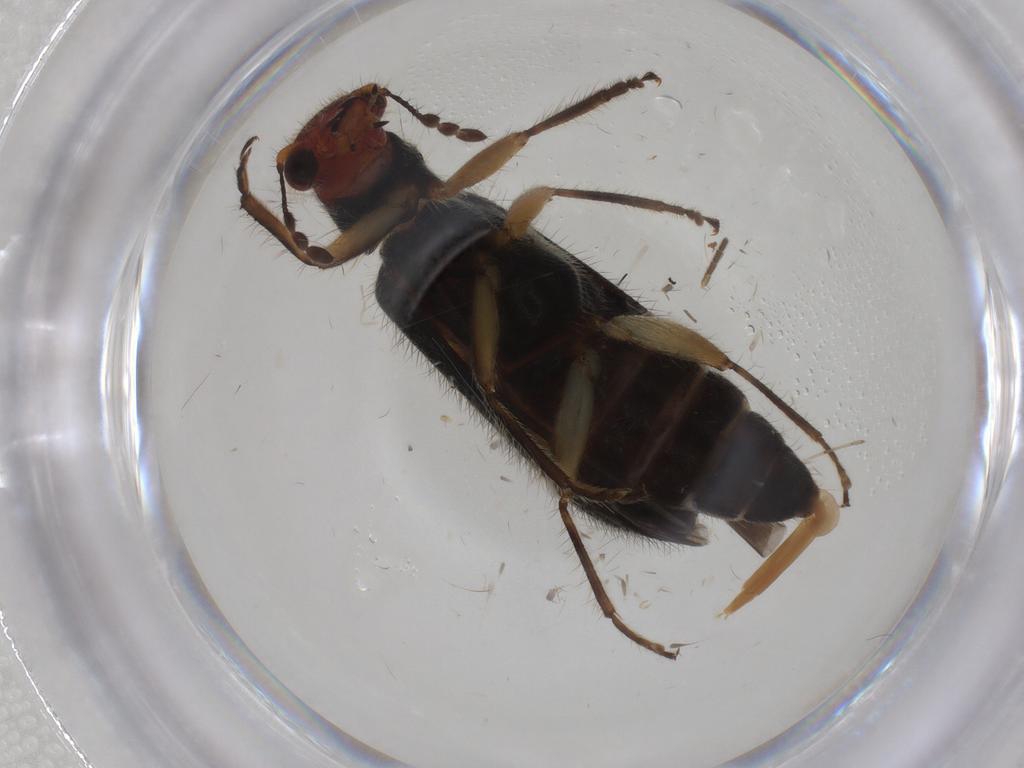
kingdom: Animalia
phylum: Arthropoda
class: Insecta
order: Coleoptera
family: Cleridae
